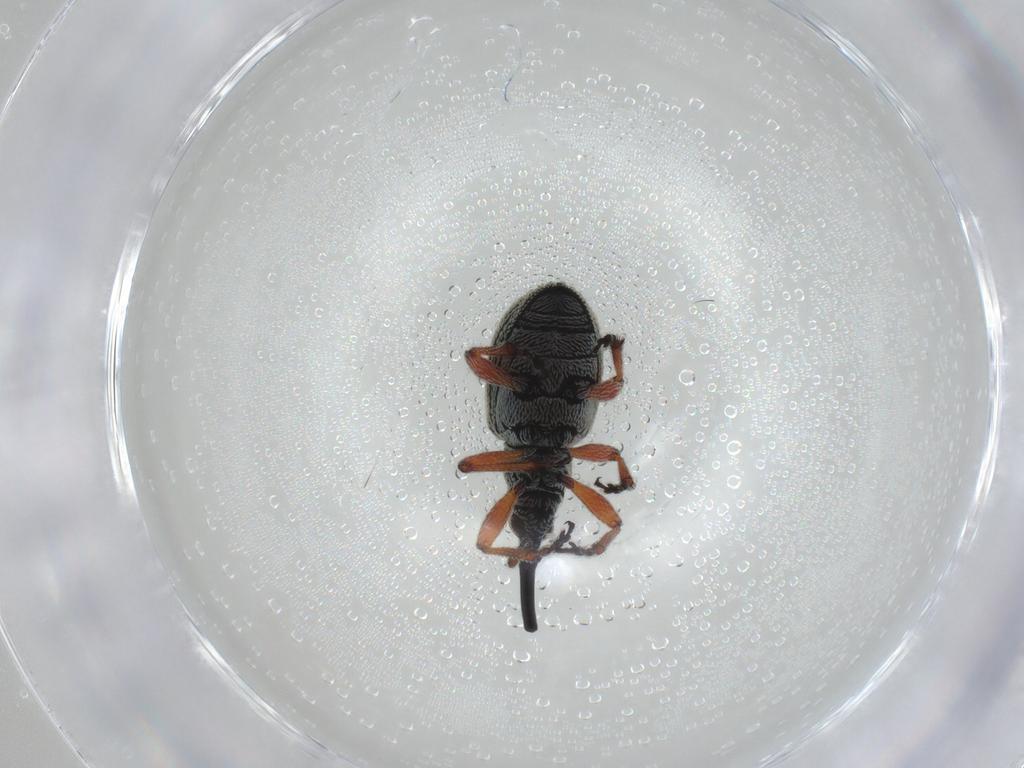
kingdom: Animalia
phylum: Arthropoda
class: Insecta
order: Coleoptera
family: Brentidae
